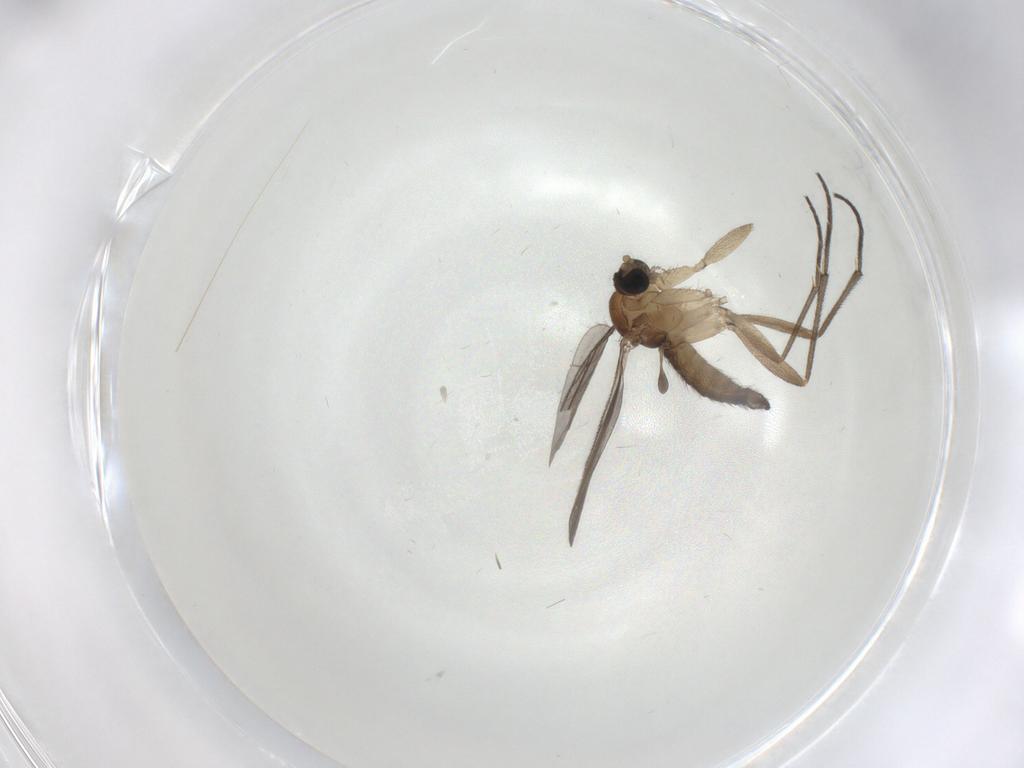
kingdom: Animalia
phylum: Arthropoda
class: Insecta
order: Diptera
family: Sciaridae
